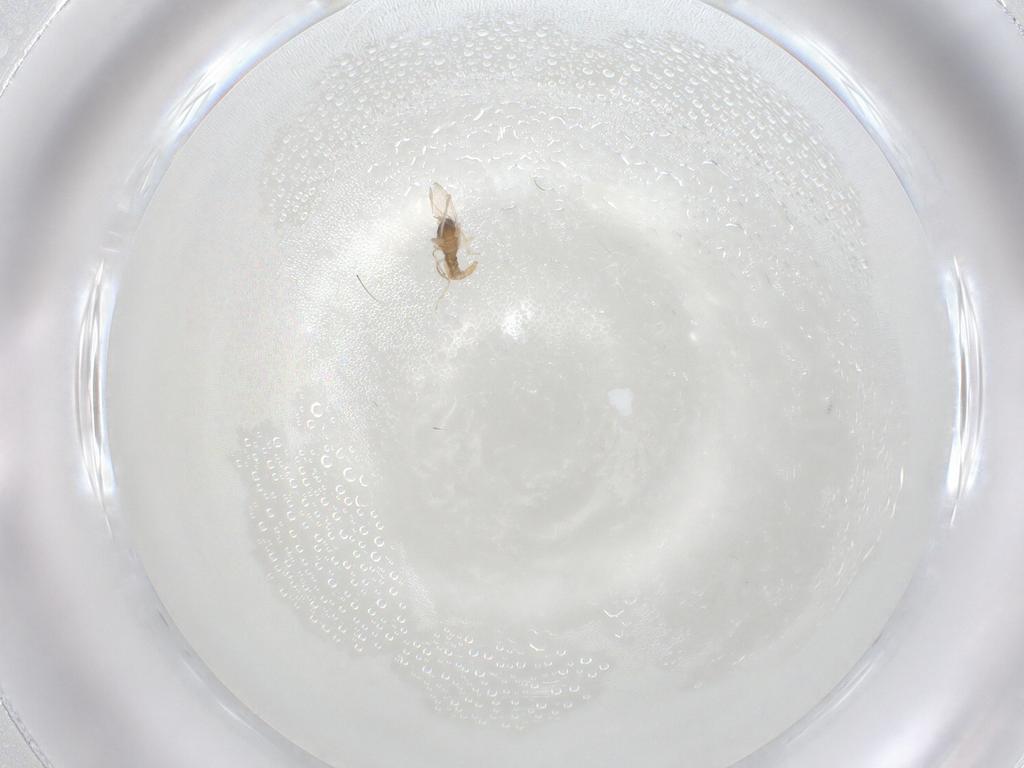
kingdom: Animalia
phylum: Arthropoda
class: Insecta
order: Diptera
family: Cecidomyiidae
